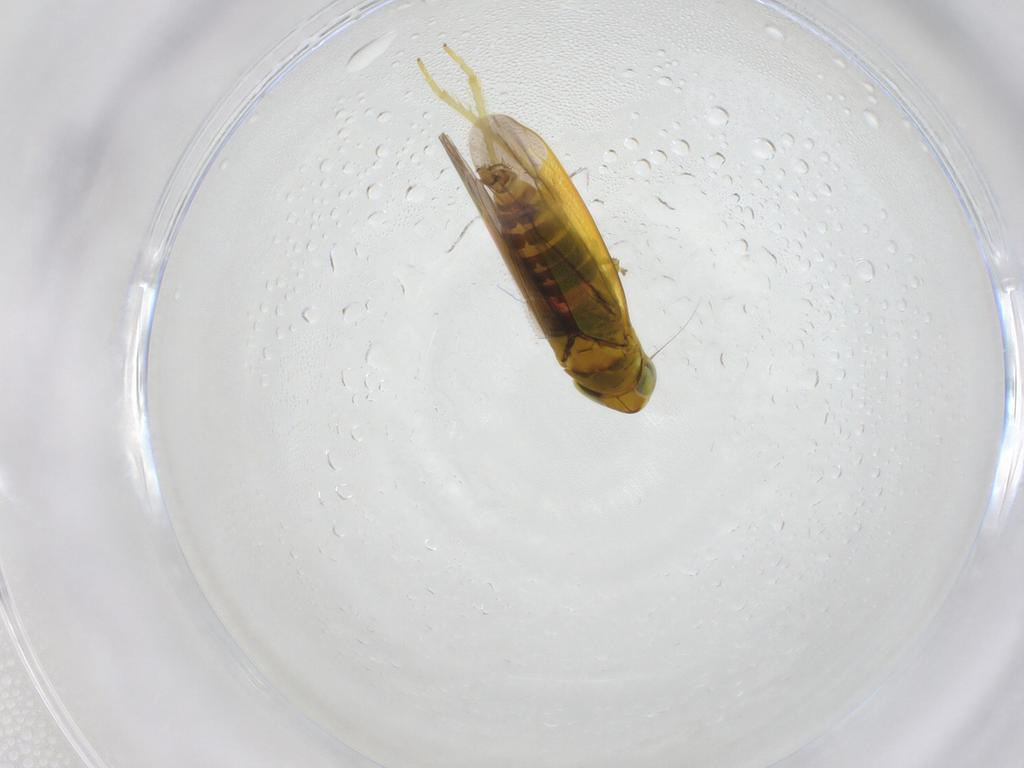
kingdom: Animalia
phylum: Arthropoda
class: Insecta
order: Hemiptera
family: Cicadellidae
